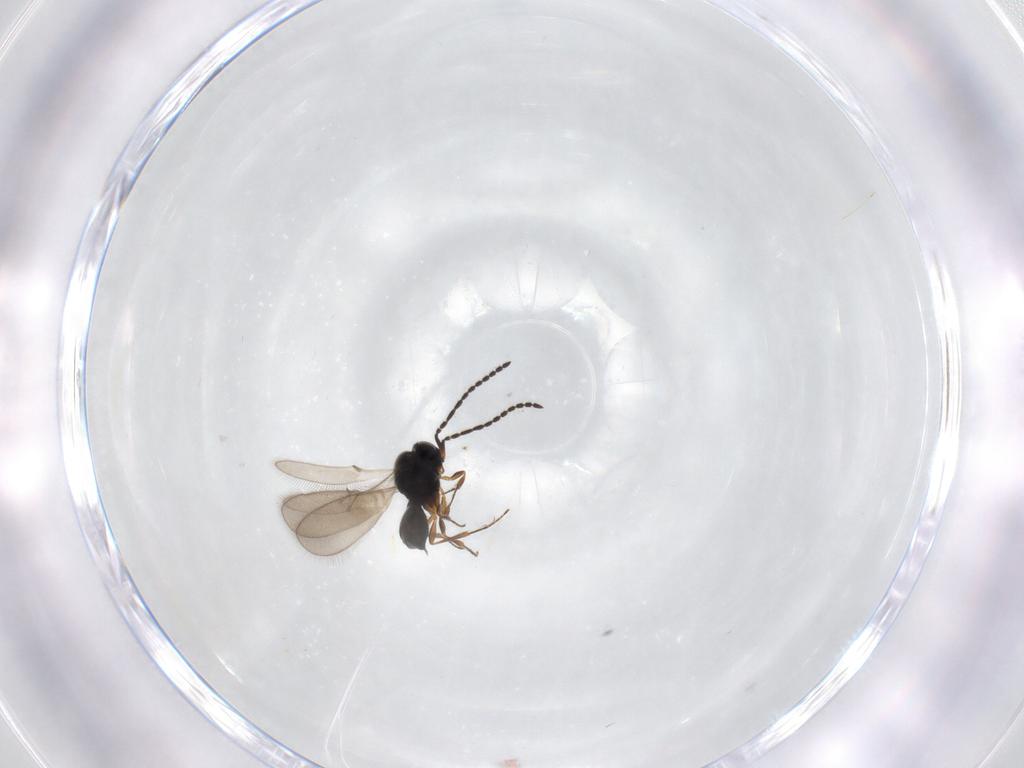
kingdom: Animalia
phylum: Arthropoda
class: Insecta
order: Hymenoptera
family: Scelionidae
